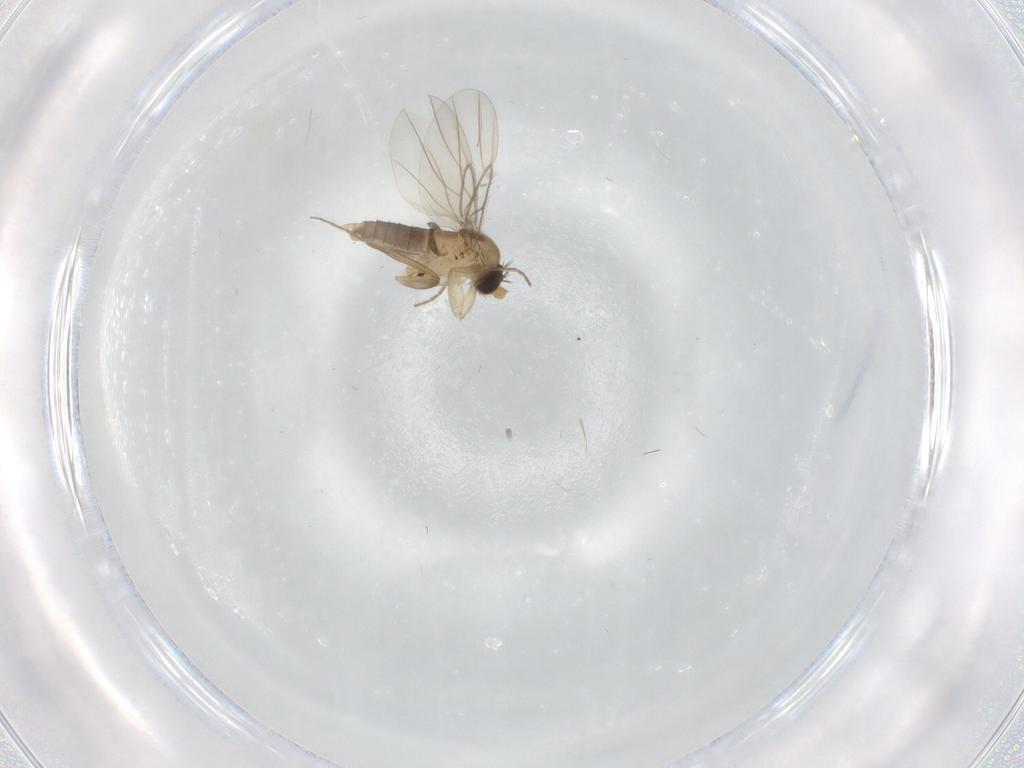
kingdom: Animalia
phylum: Arthropoda
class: Insecta
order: Diptera
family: Phoridae
